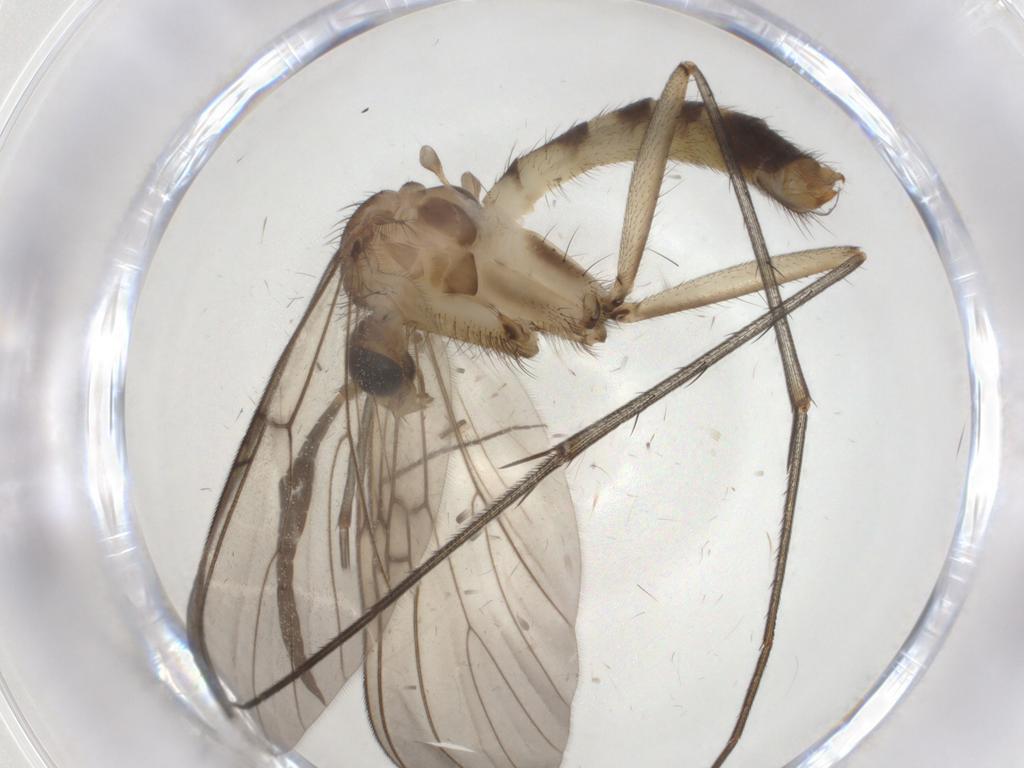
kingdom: Animalia
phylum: Arthropoda
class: Insecta
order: Diptera
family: Mycetophilidae
